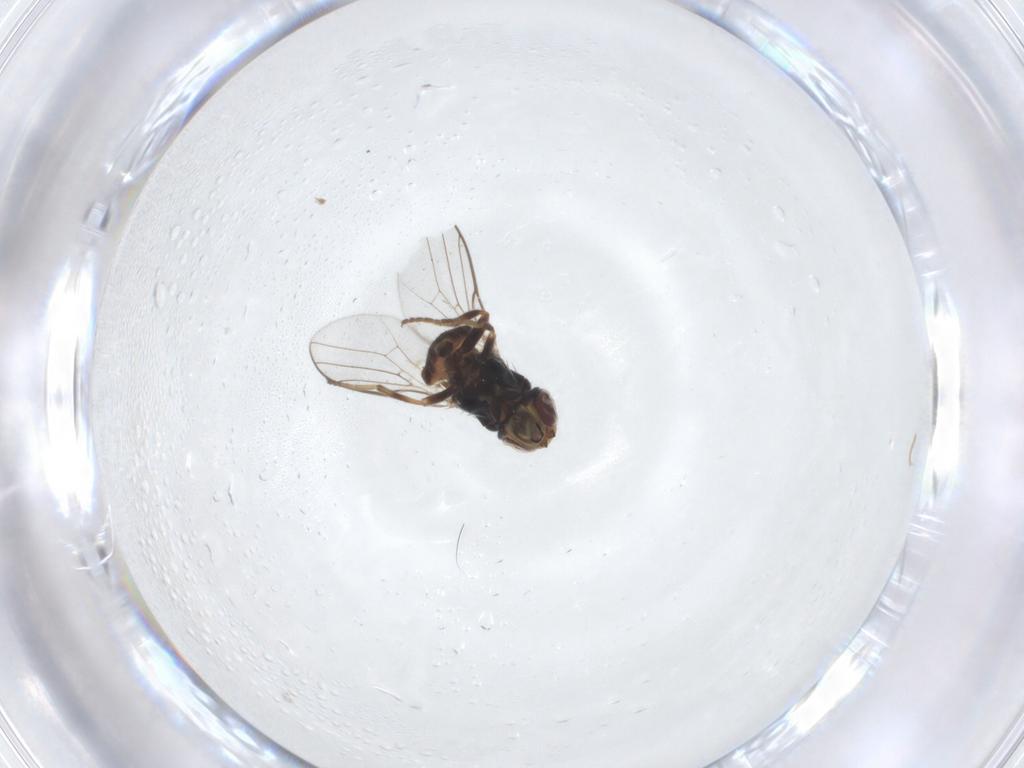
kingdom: Animalia
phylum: Arthropoda
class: Insecta
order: Diptera
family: Chloropidae
